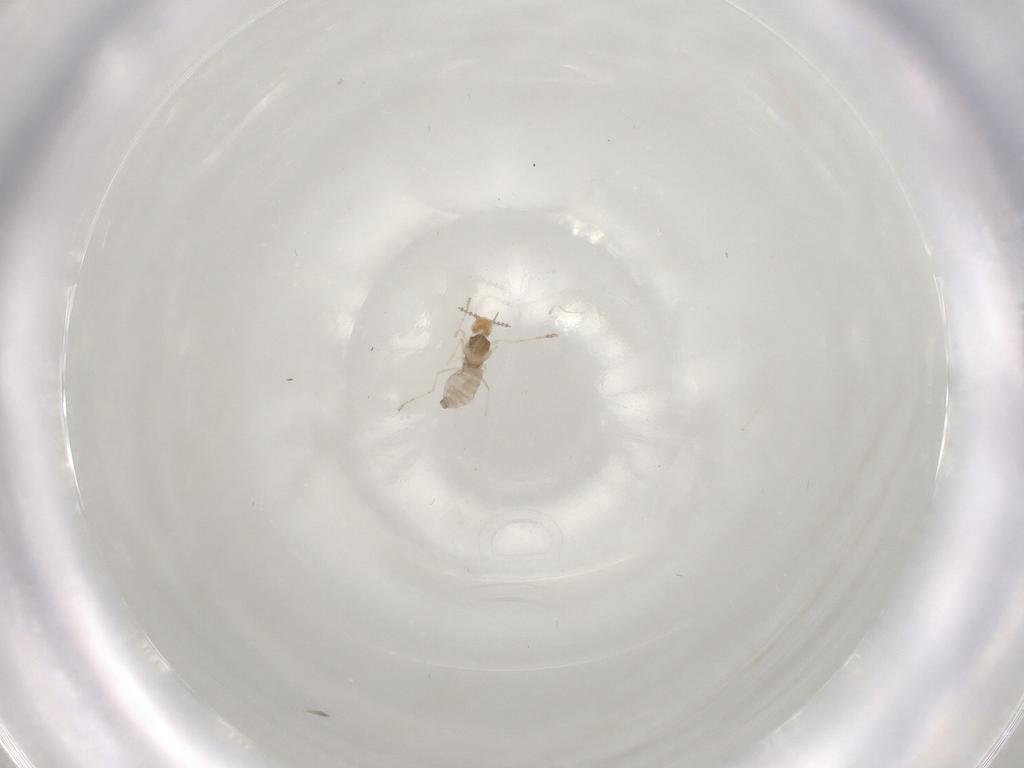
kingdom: Animalia
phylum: Arthropoda
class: Insecta
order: Diptera
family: Cecidomyiidae
